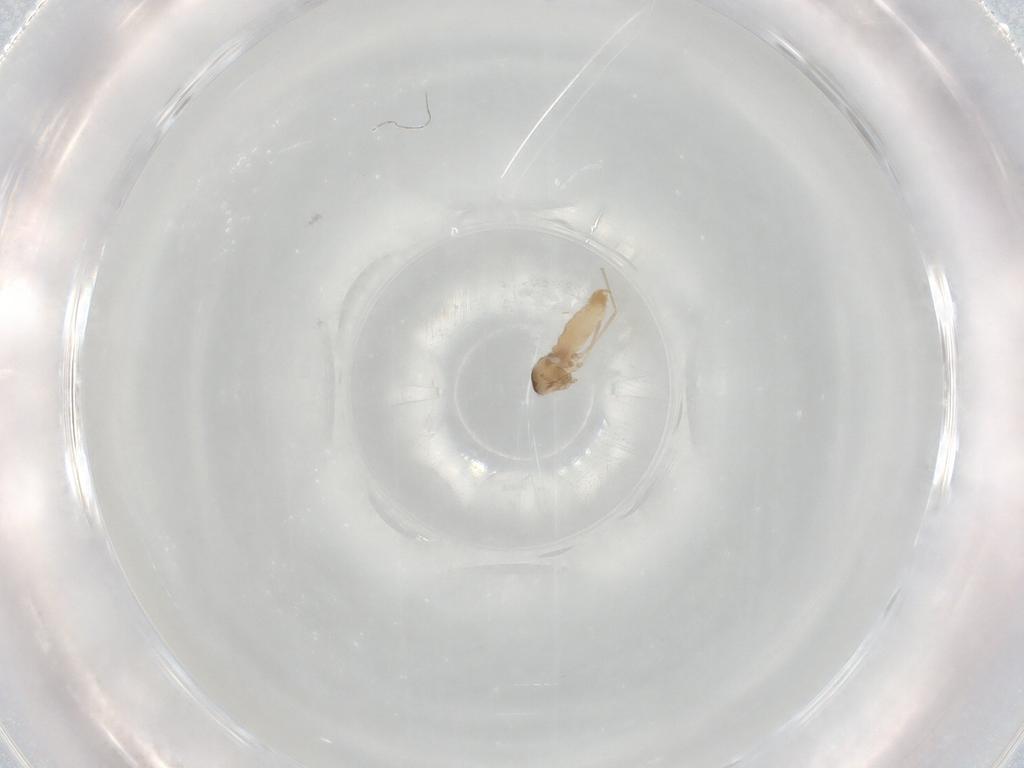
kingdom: Animalia
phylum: Arthropoda
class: Insecta
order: Diptera
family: Cecidomyiidae
